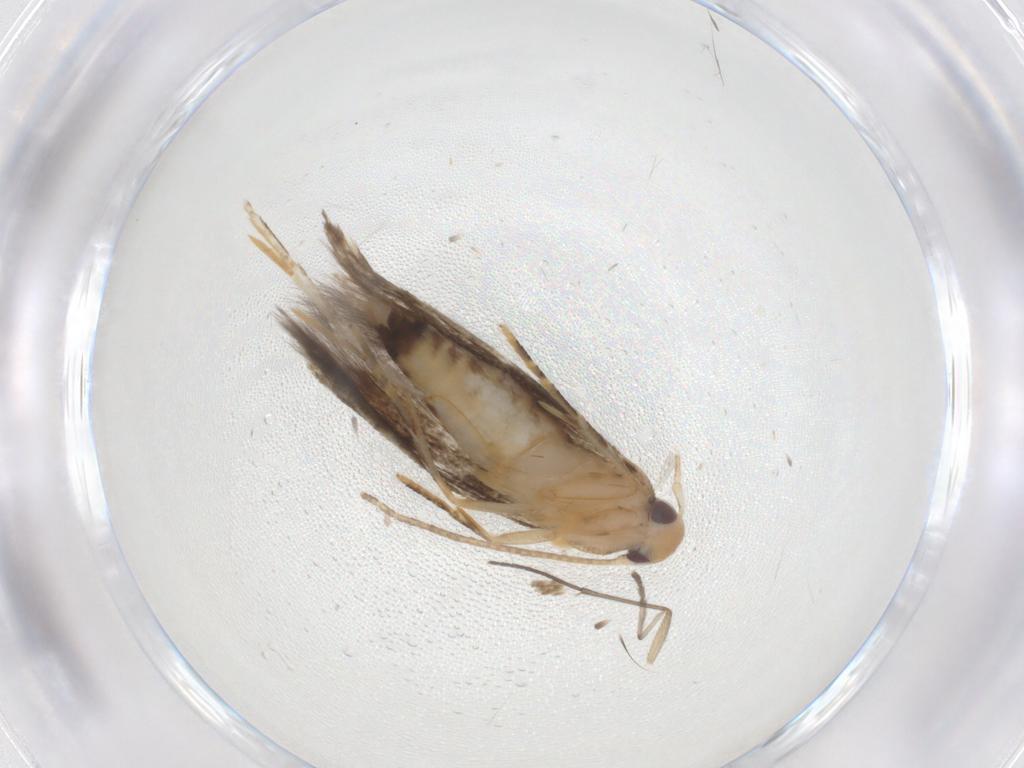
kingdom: Animalia
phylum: Arthropoda
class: Insecta
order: Lepidoptera
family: Momphidae
